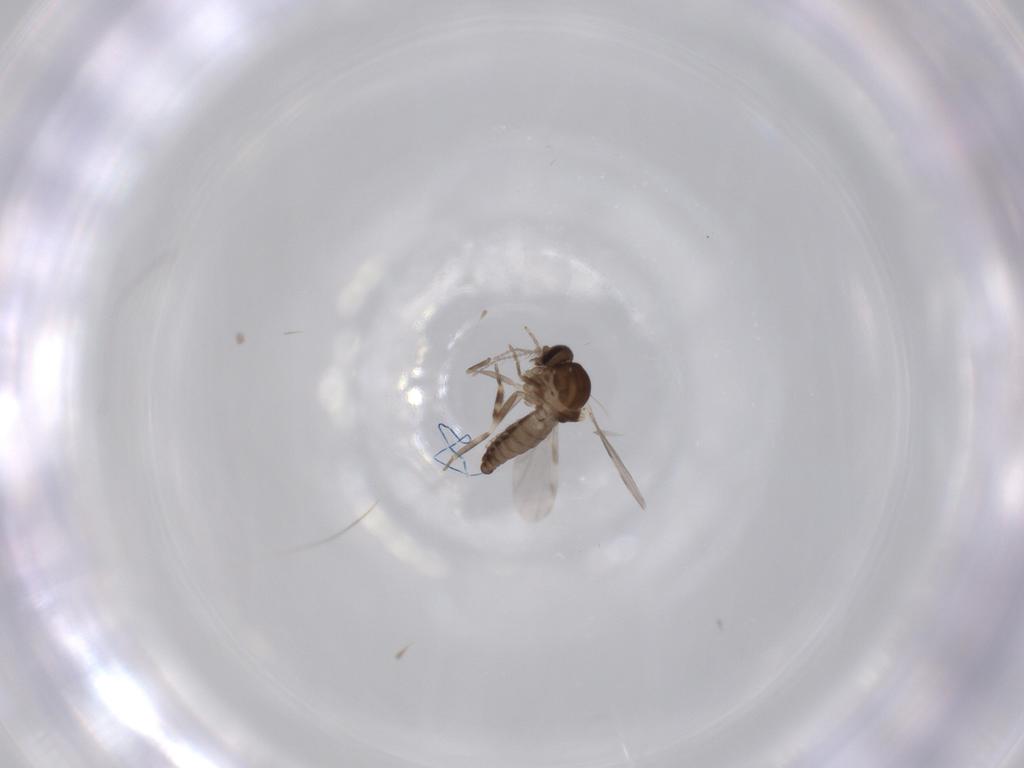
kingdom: Animalia
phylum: Arthropoda
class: Insecta
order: Diptera
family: Ceratopogonidae
